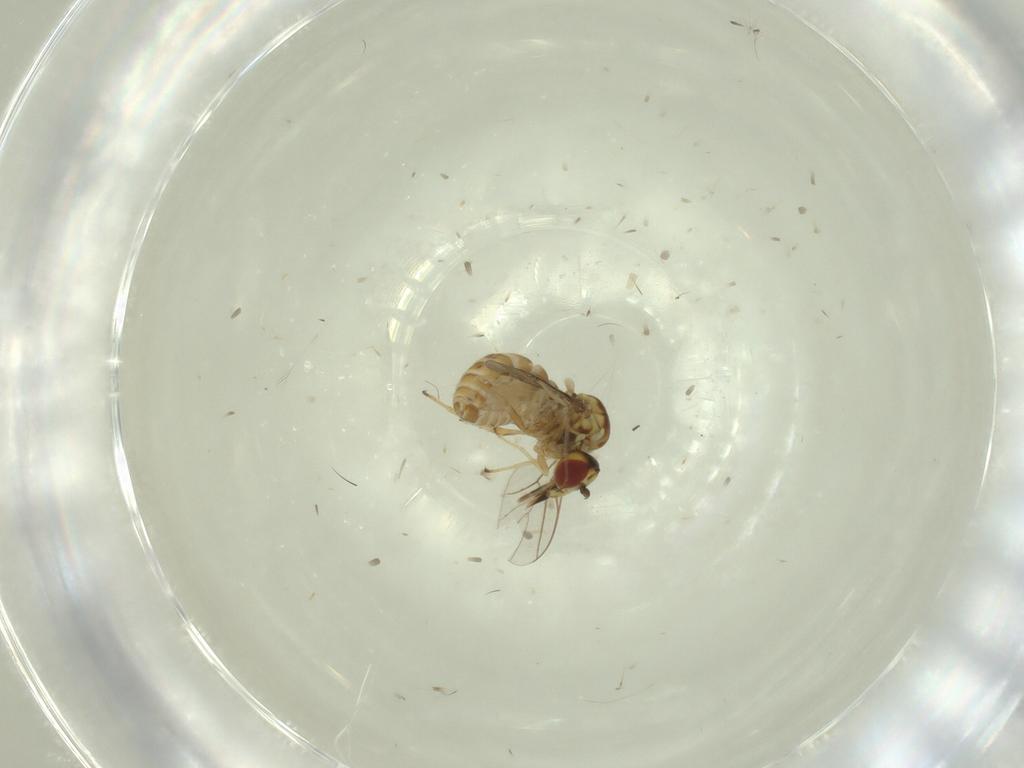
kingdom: Animalia
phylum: Arthropoda
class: Insecta
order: Diptera
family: Bombyliidae
